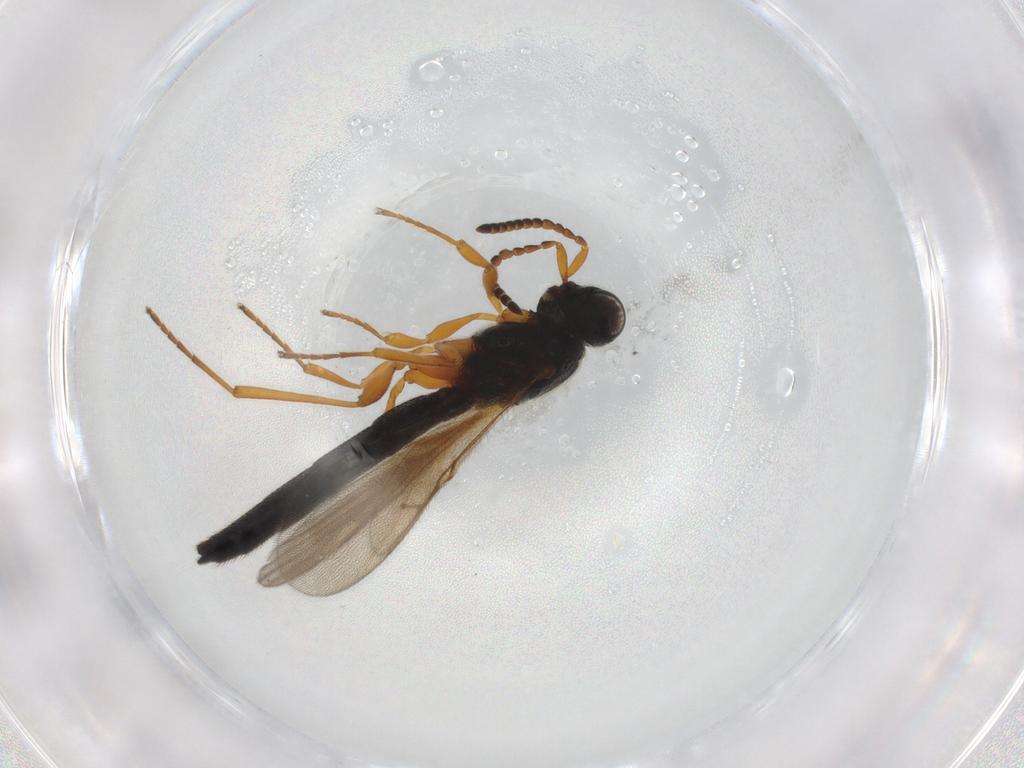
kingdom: Animalia
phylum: Arthropoda
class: Insecta
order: Hymenoptera
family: Scelionidae
